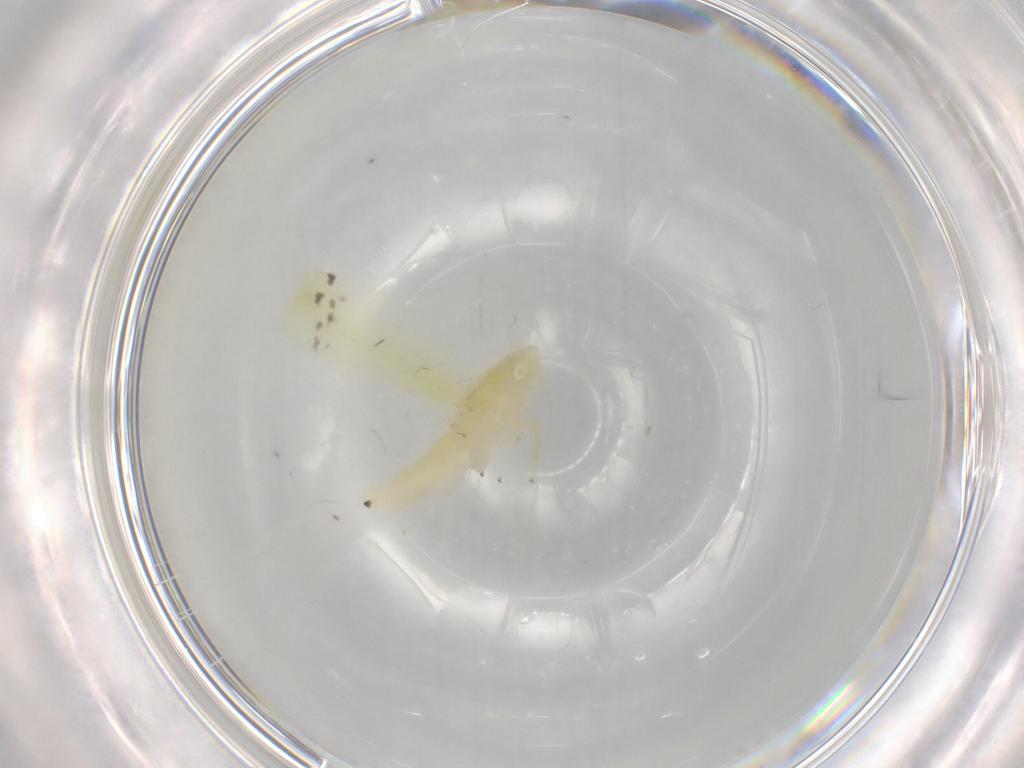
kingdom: Animalia
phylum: Arthropoda
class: Insecta
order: Hemiptera
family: Cicadellidae
